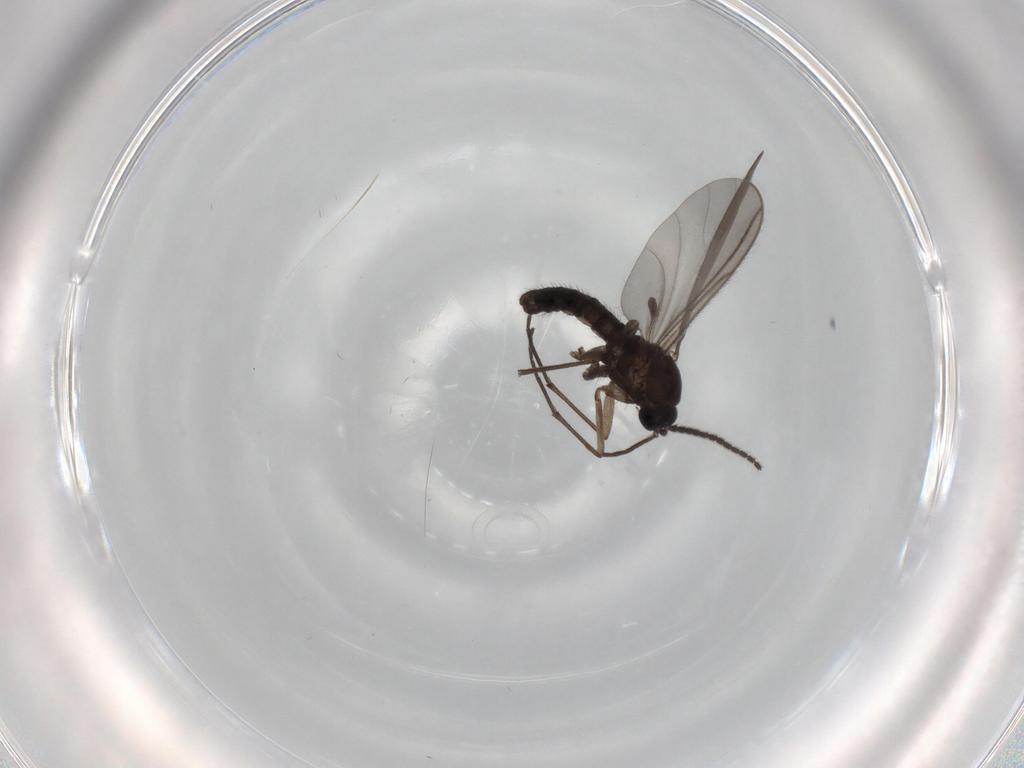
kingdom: Animalia
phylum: Arthropoda
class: Insecta
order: Diptera
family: Sciaridae
